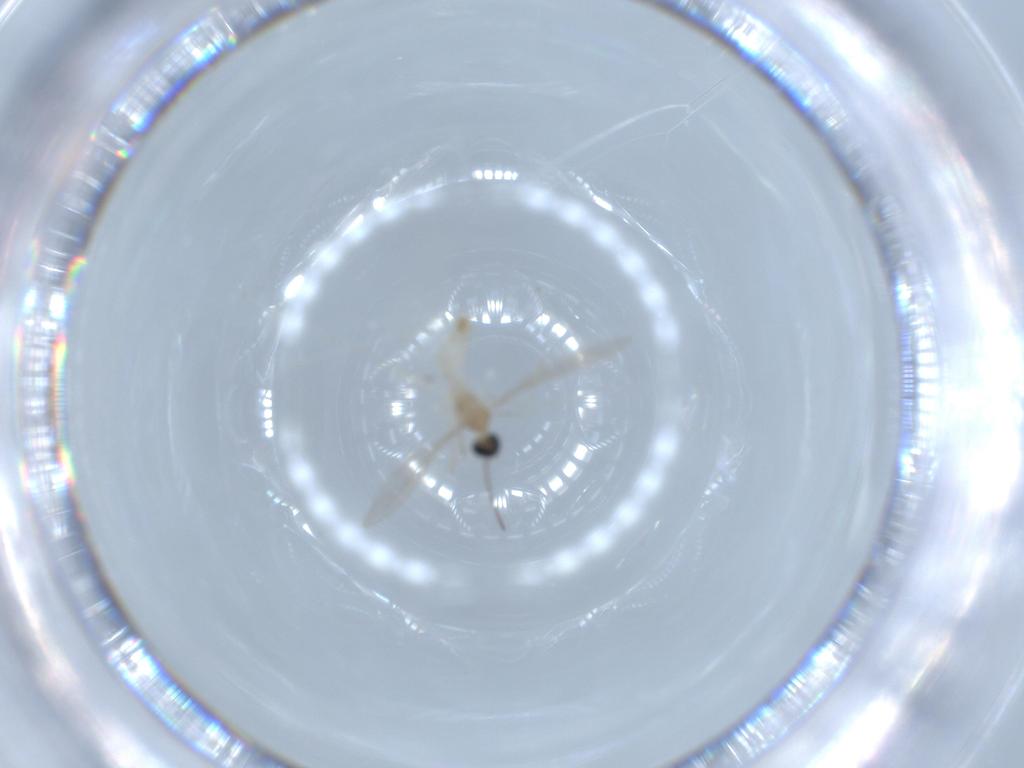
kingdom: Animalia
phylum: Arthropoda
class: Insecta
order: Diptera
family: Cecidomyiidae
